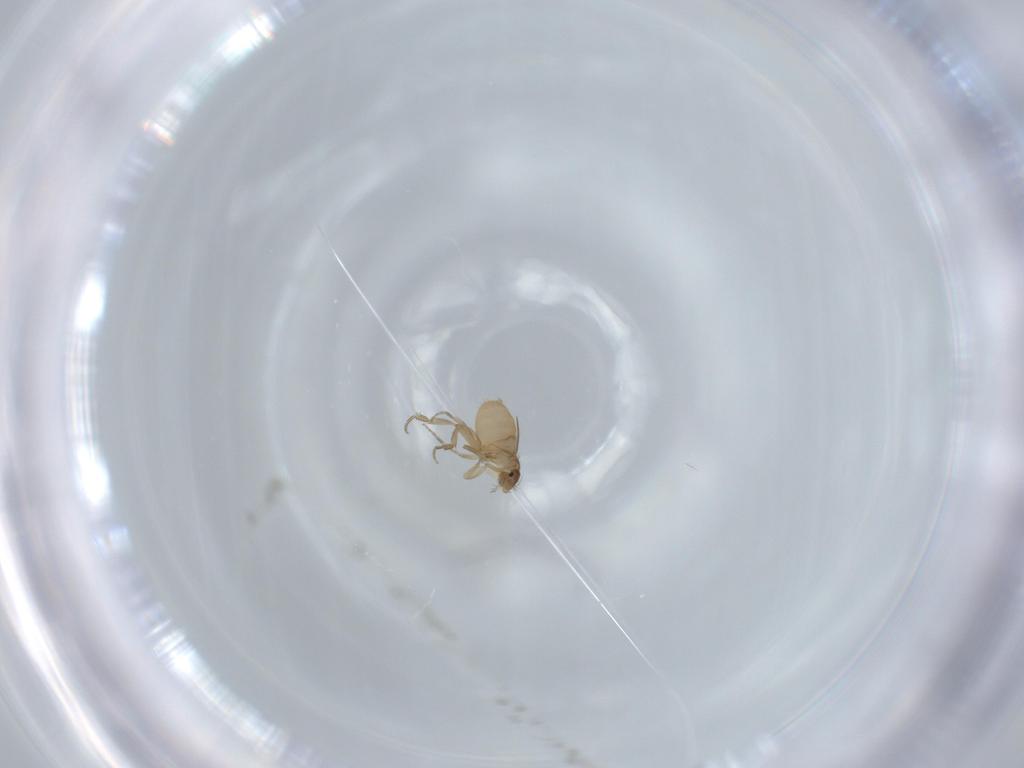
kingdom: Animalia
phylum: Arthropoda
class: Insecta
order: Diptera
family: Phoridae
